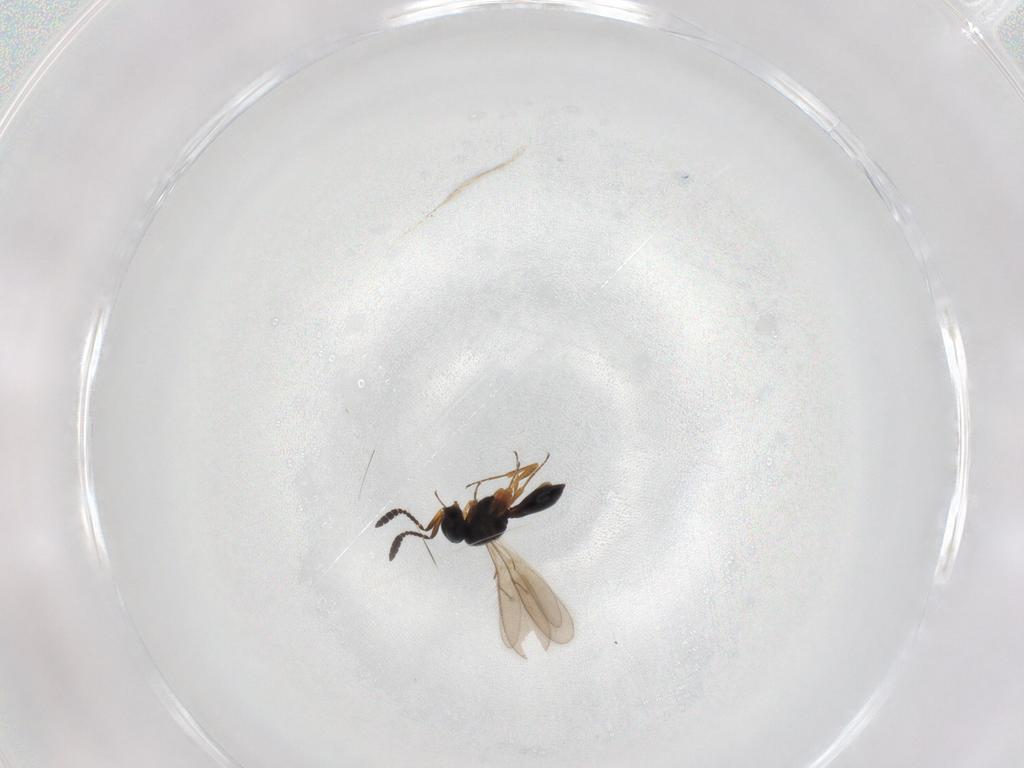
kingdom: Animalia
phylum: Arthropoda
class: Insecta
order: Hymenoptera
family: Scelionidae
